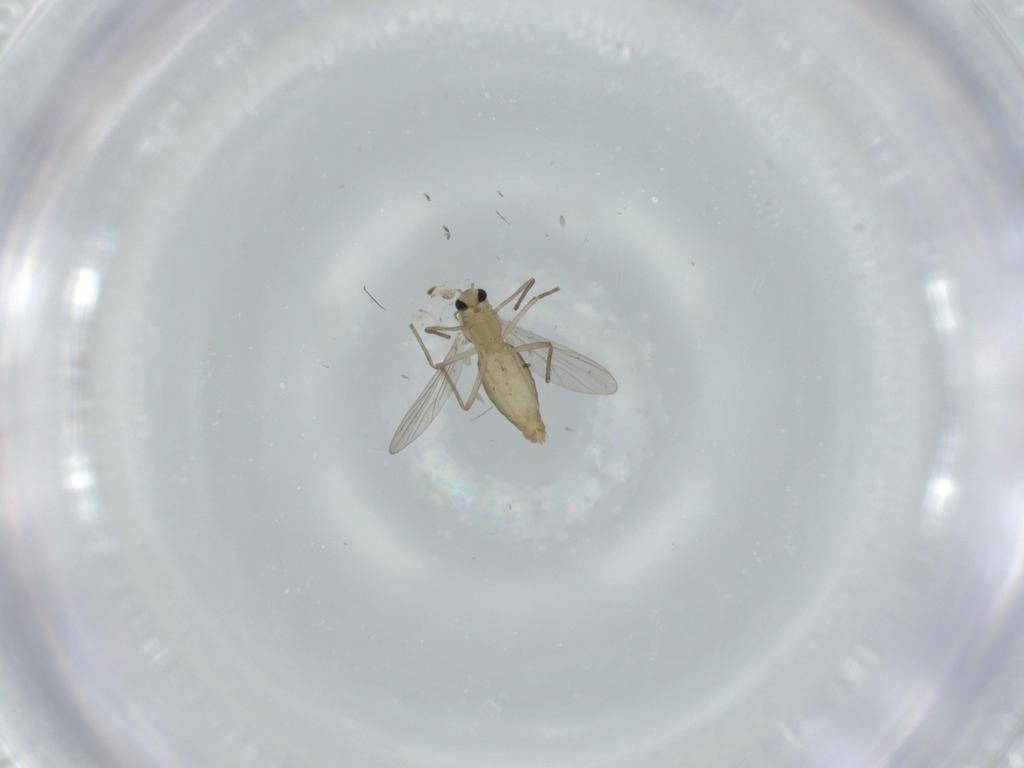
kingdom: Animalia
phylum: Arthropoda
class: Insecta
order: Diptera
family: Chironomidae
